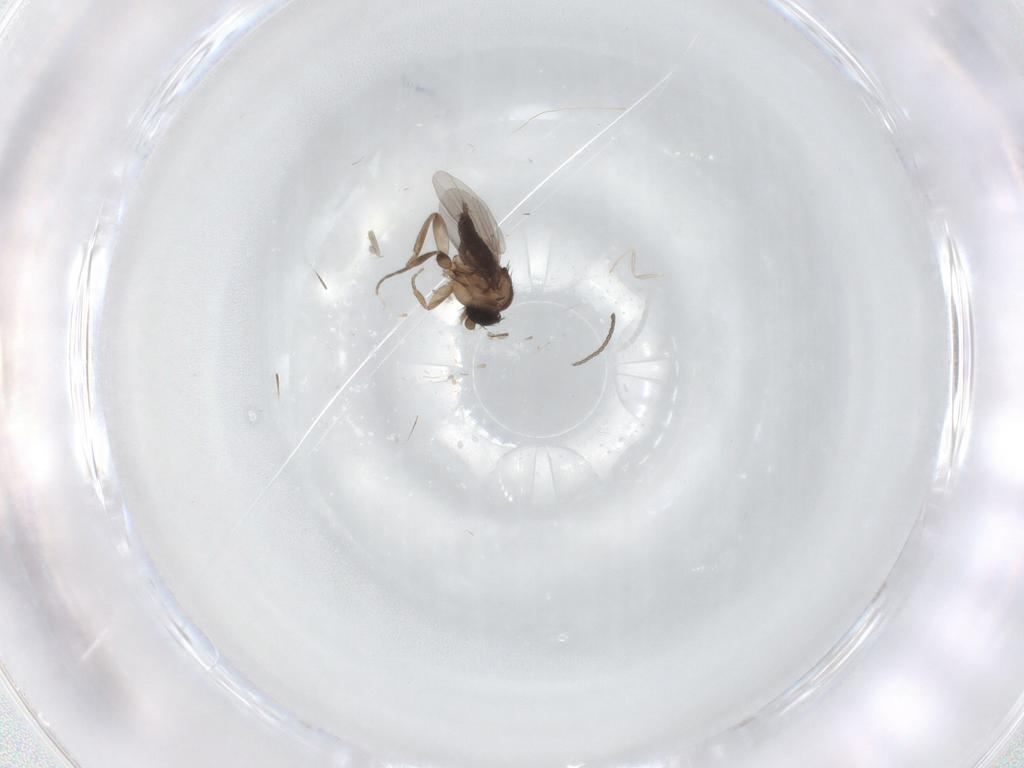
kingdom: Animalia
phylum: Arthropoda
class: Insecta
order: Diptera
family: Phoridae
